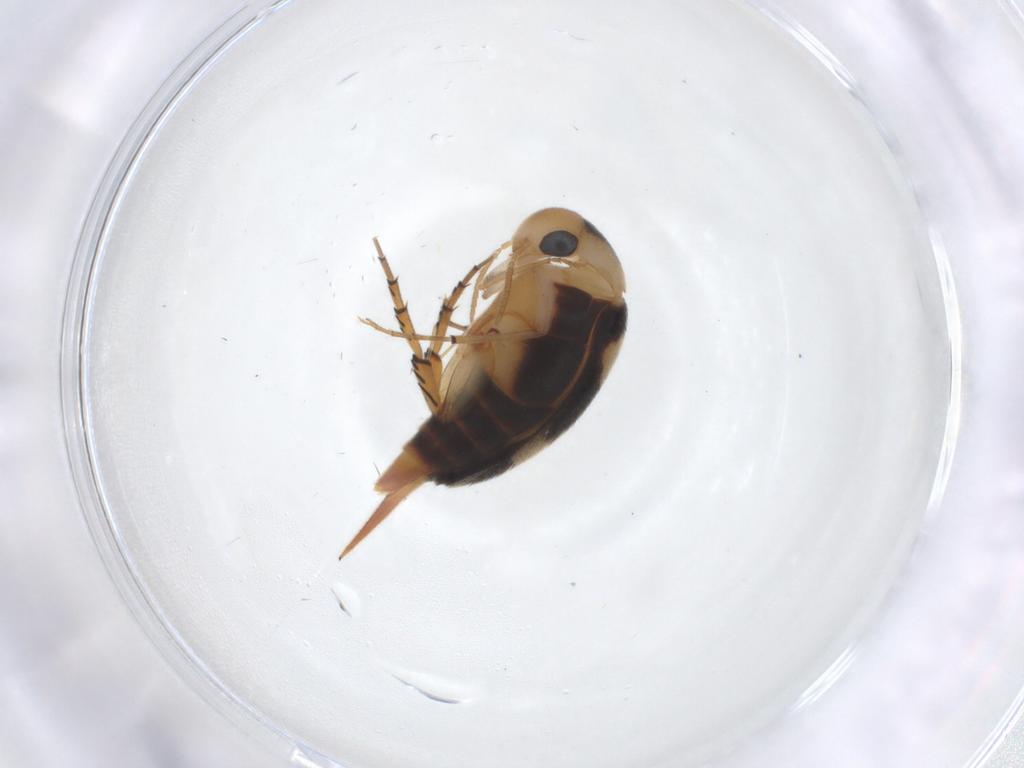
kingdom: Animalia
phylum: Arthropoda
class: Insecta
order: Coleoptera
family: Mordellidae
